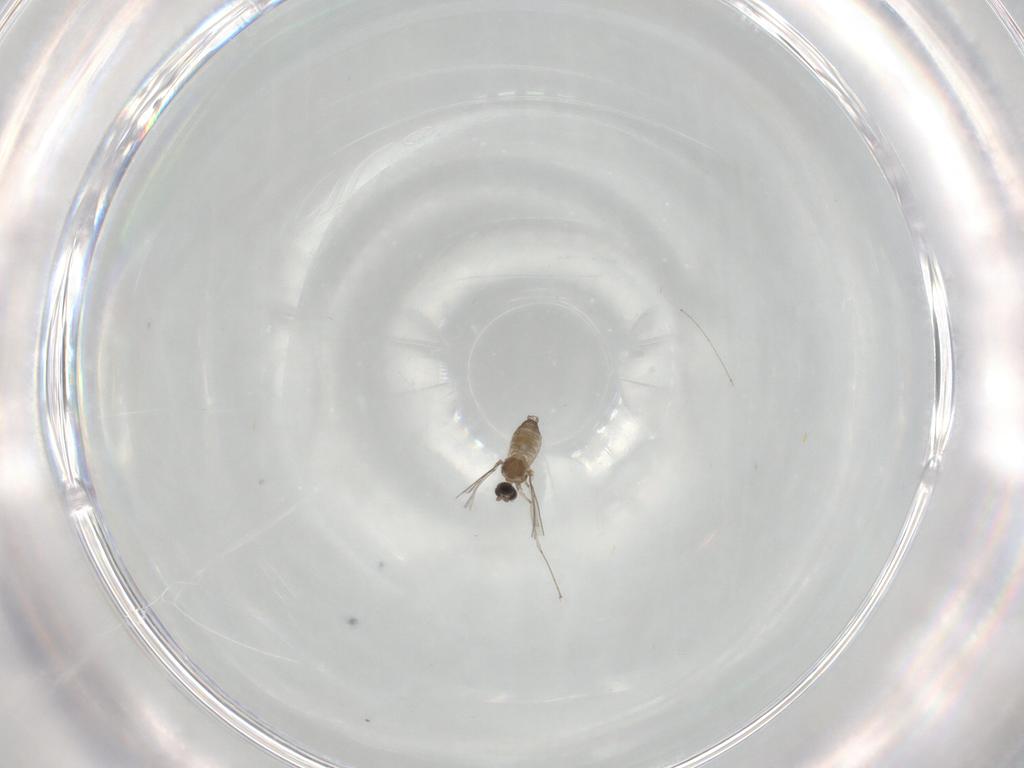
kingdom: Animalia
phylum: Arthropoda
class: Insecta
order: Diptera
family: Cecidomyiidae
